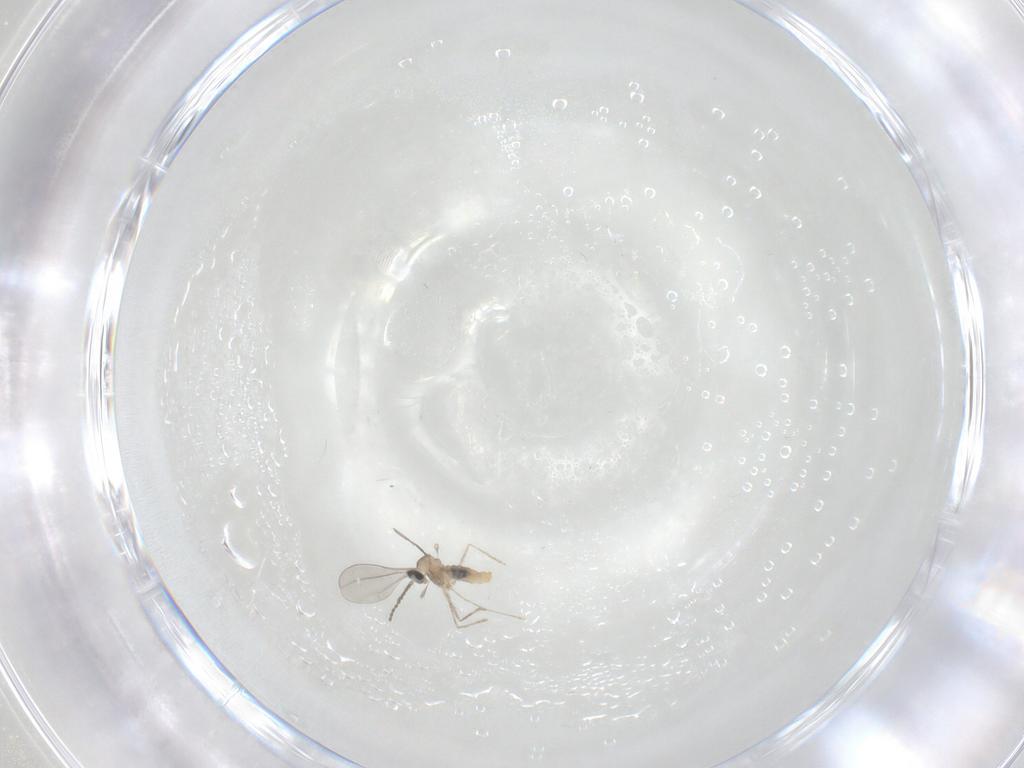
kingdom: Animalia
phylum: Arthropoda
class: Insecta
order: Diptera
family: Cecidomyiidae
